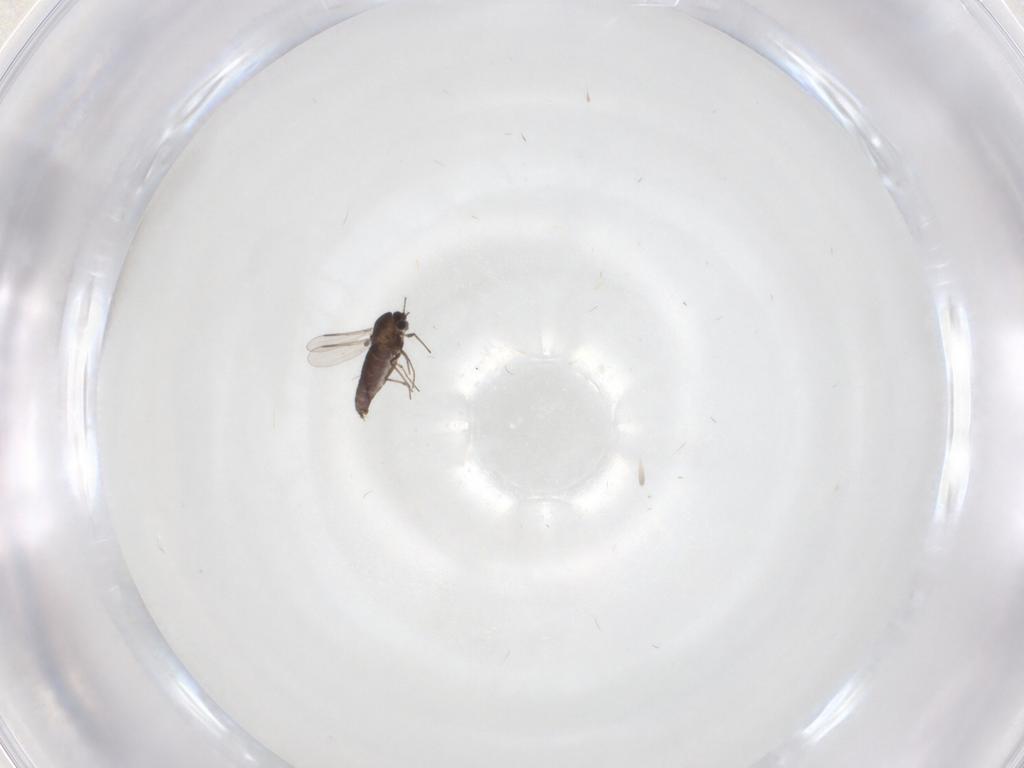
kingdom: Animalia
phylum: Arthropoda
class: Insecta
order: Diptera
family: Chironomidae
